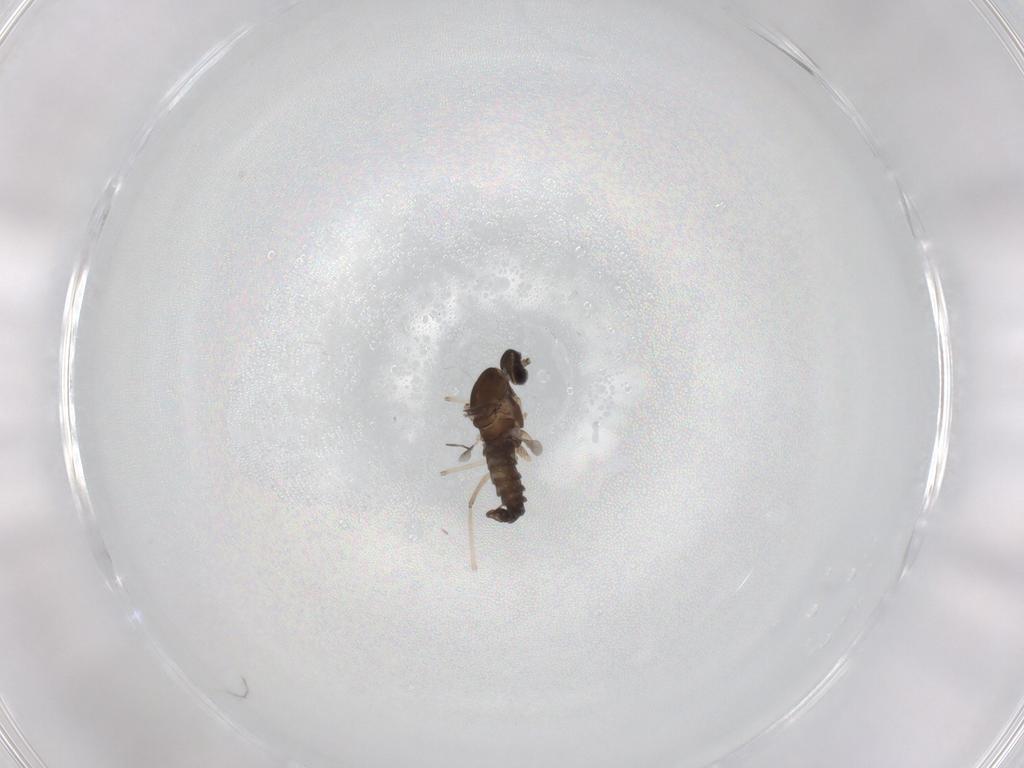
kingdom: Animalia
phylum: Arthropoda
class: Insecta
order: Diptera
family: Cecidomyiidae
